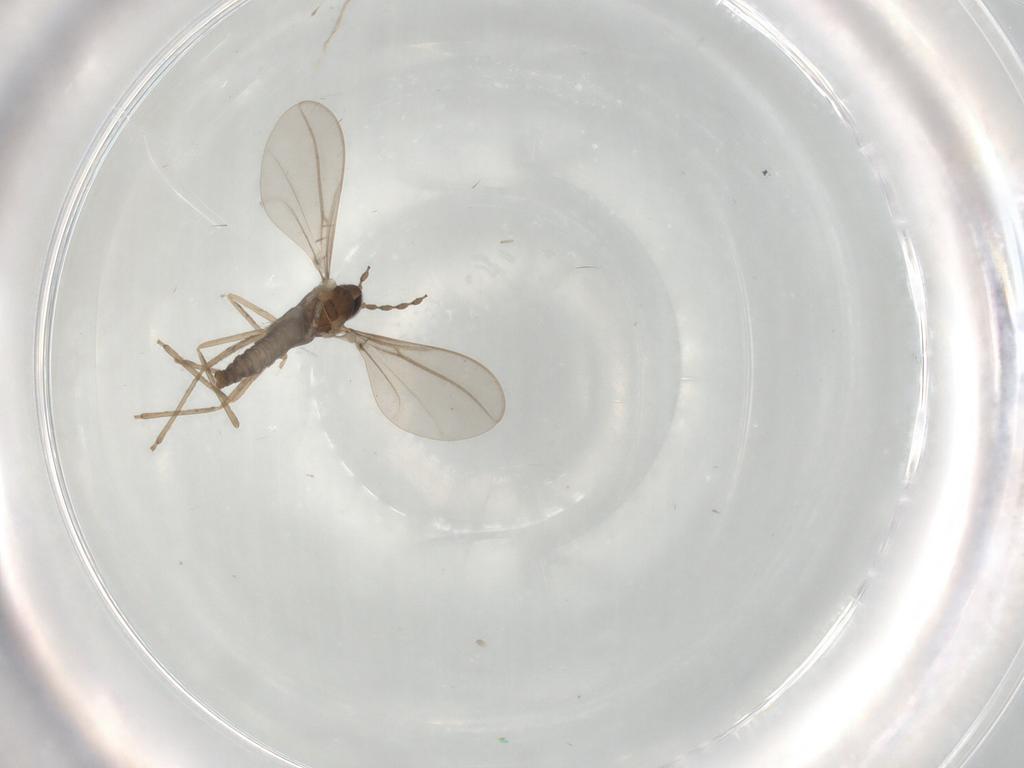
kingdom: Animalia
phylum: Arthropoda
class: Insecta
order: Diptera
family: Cecidomyiidae
